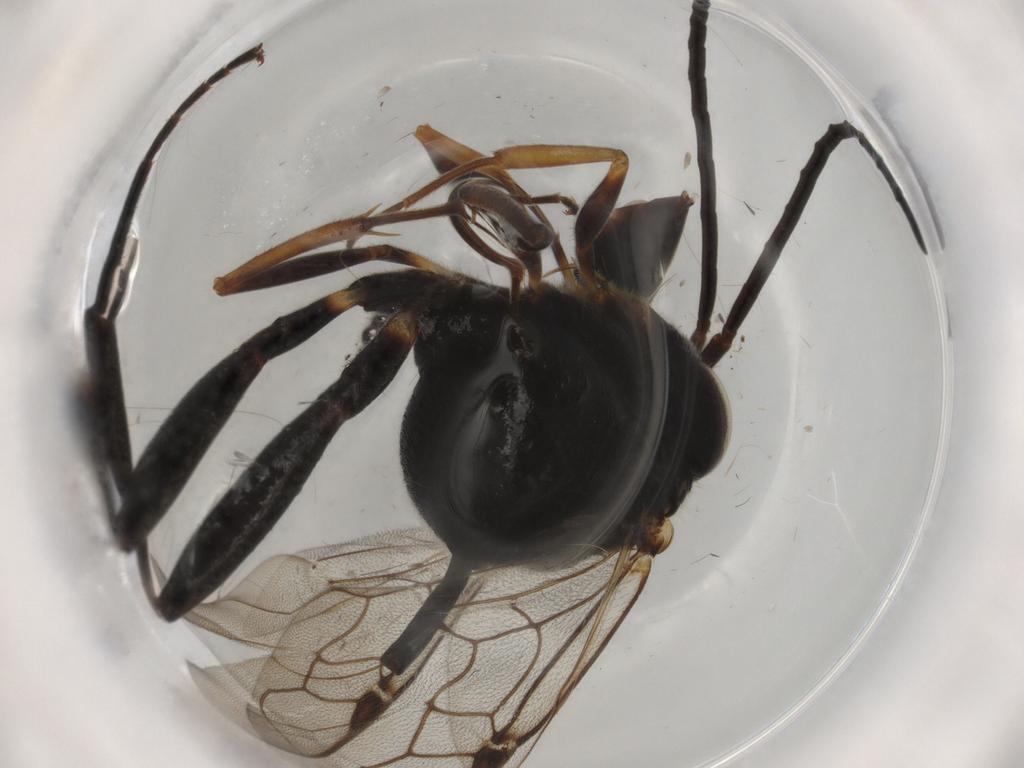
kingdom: Animalia
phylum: Arthropoda
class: Insecta
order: Hymenoptera
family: Evaniidae
